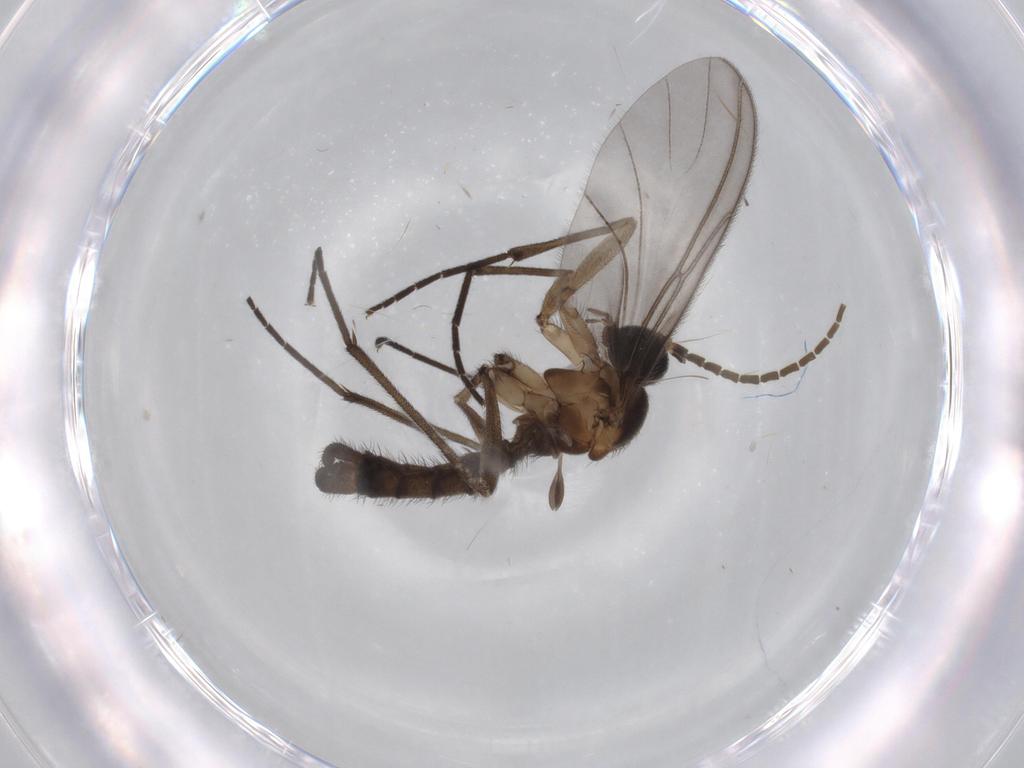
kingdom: Animalia
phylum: Arthropoda
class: Insecta
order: Diptera
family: Sciaridae
